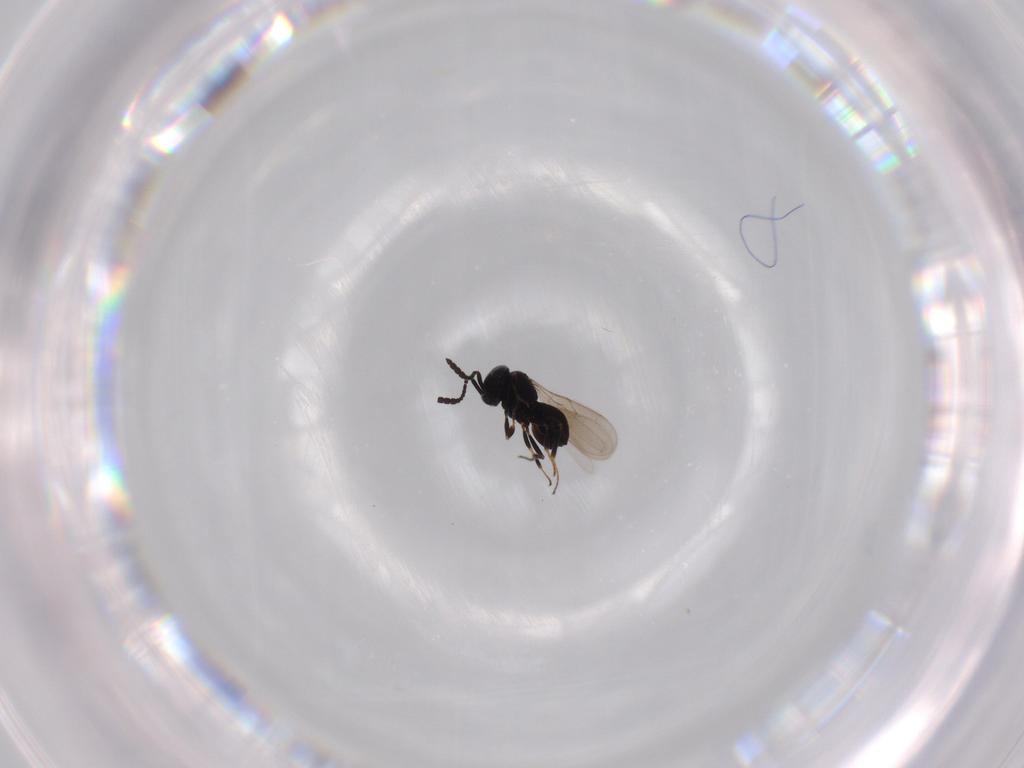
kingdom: Animalia
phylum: Arthropoda
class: Insecta
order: Hymenoptera
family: Scelionidae
